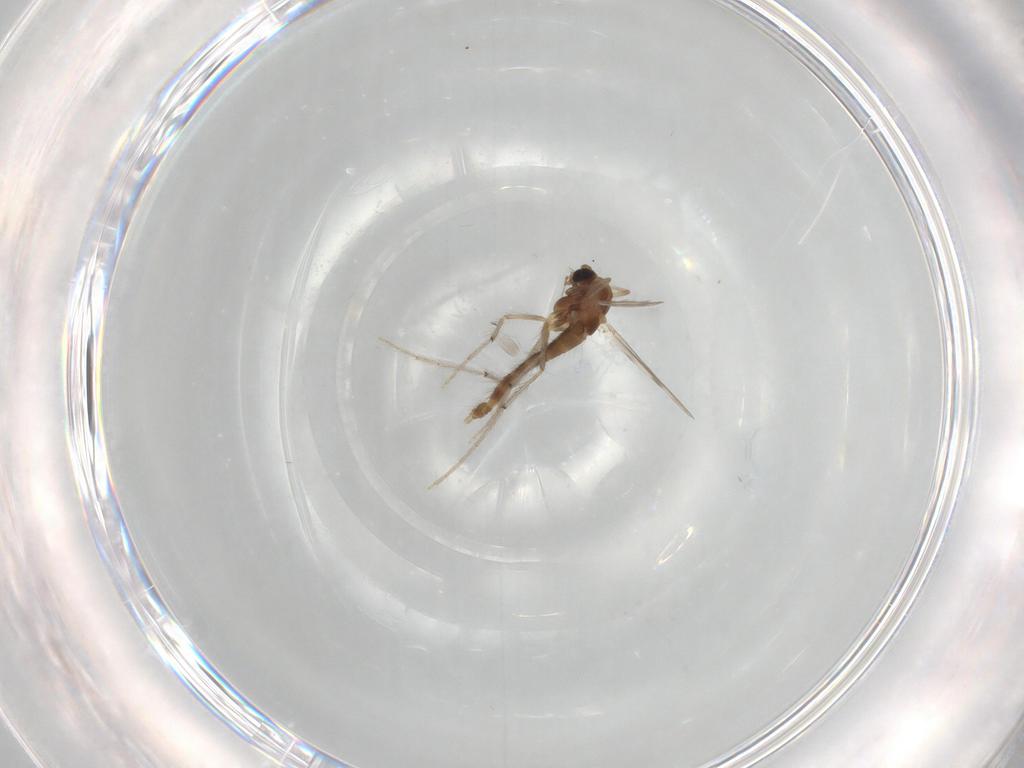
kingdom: Animalia
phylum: Arthropoda
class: Insecta
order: Diptera
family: Chironomidae
